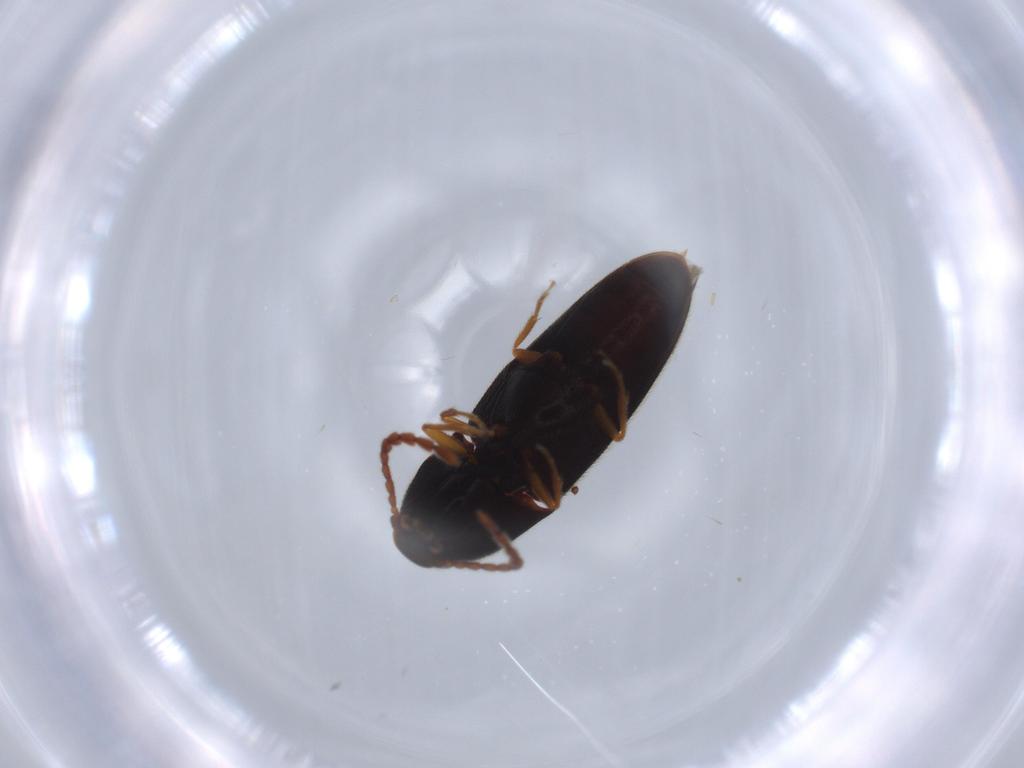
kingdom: Animalia
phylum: Arthropoda
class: Insecta
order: Coleoptera
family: Elateridae
